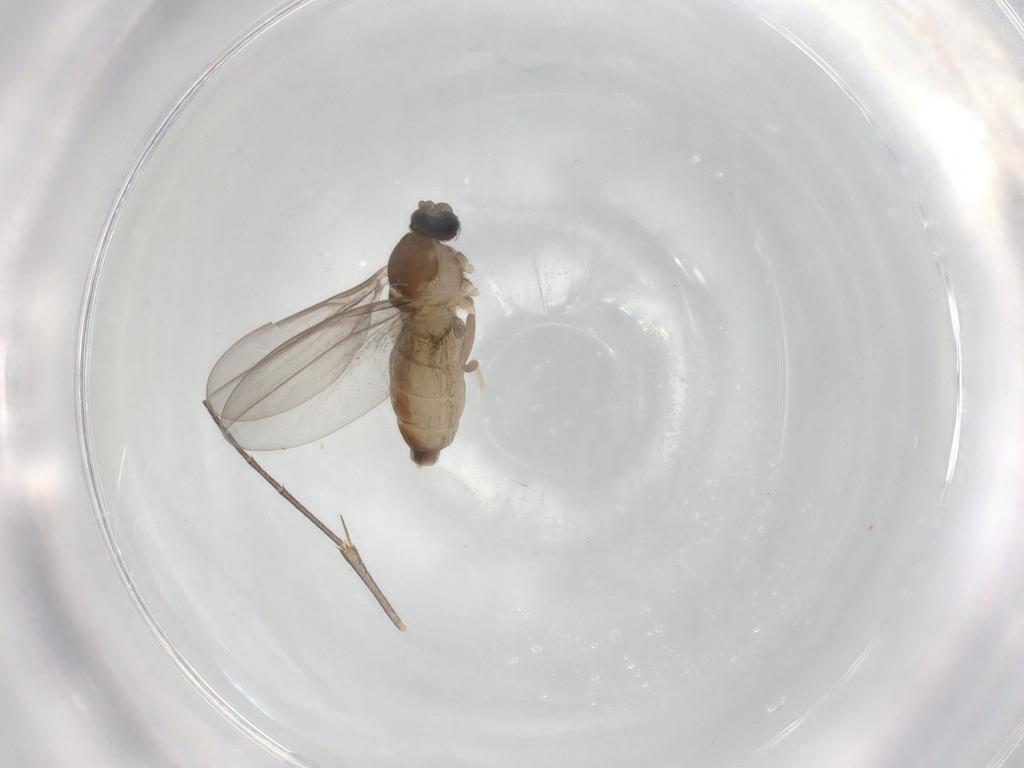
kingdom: Animalia
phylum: Arthropoda
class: Insecta
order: Diptera
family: Cecidomyiidae
